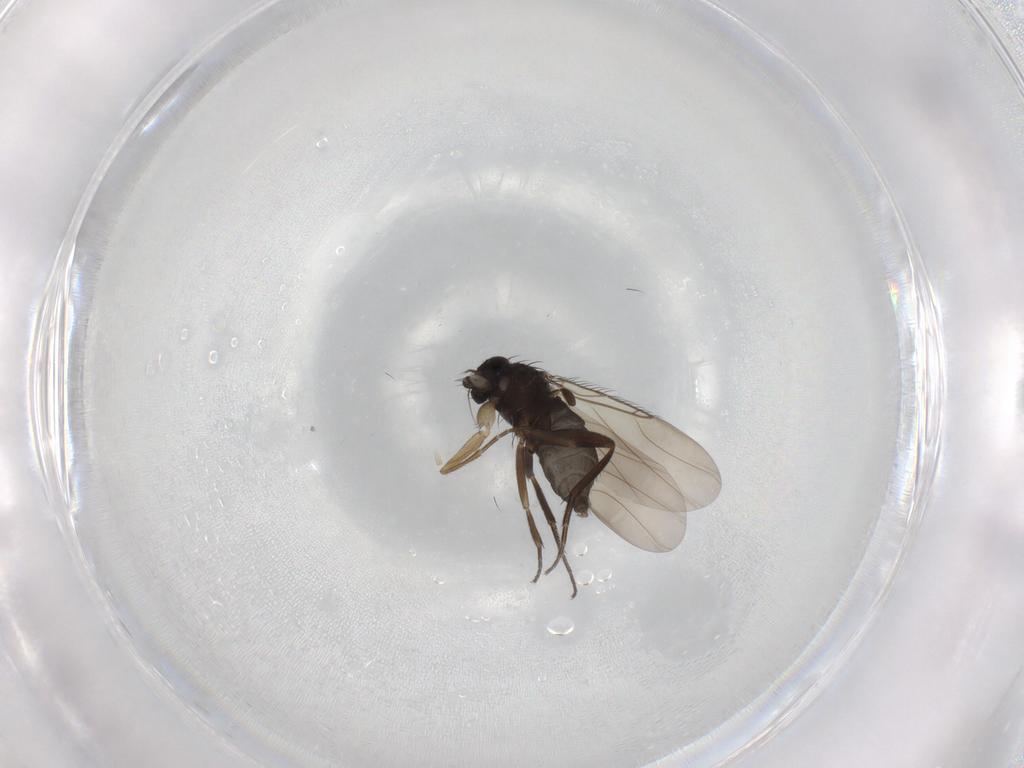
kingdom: Animalia
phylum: Arthropoda
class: Insecta
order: Diptera
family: Phoridae
